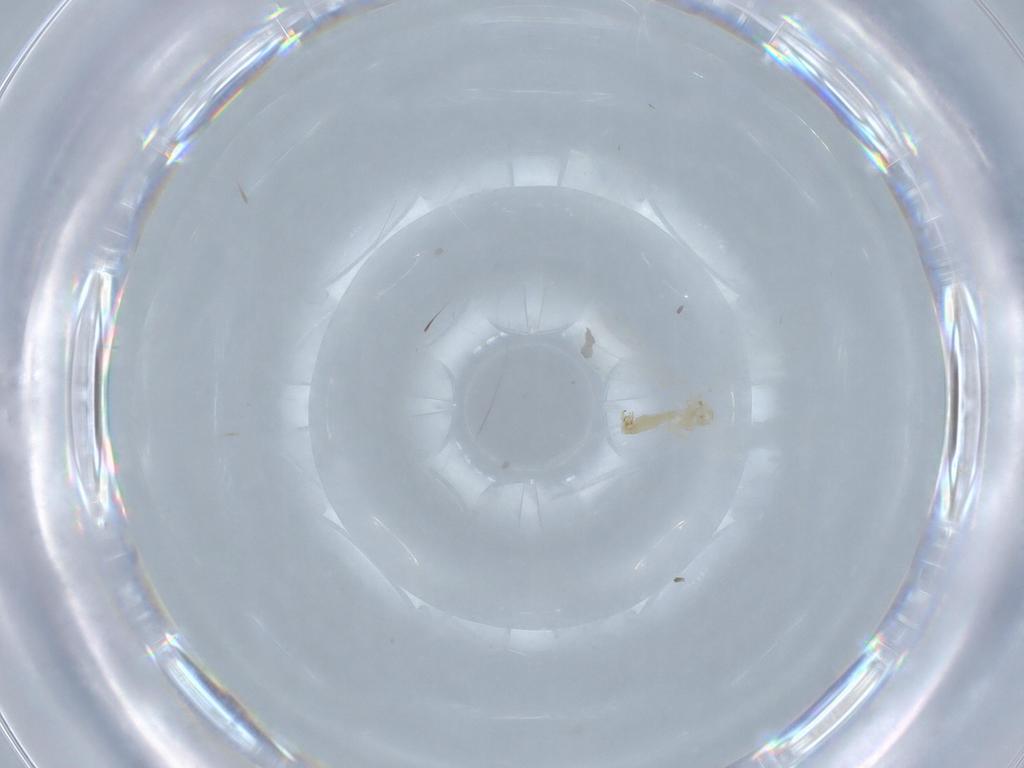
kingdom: Animalia
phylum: Arthropoda
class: Insecta
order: Diptera
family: Cecidomyiidae
